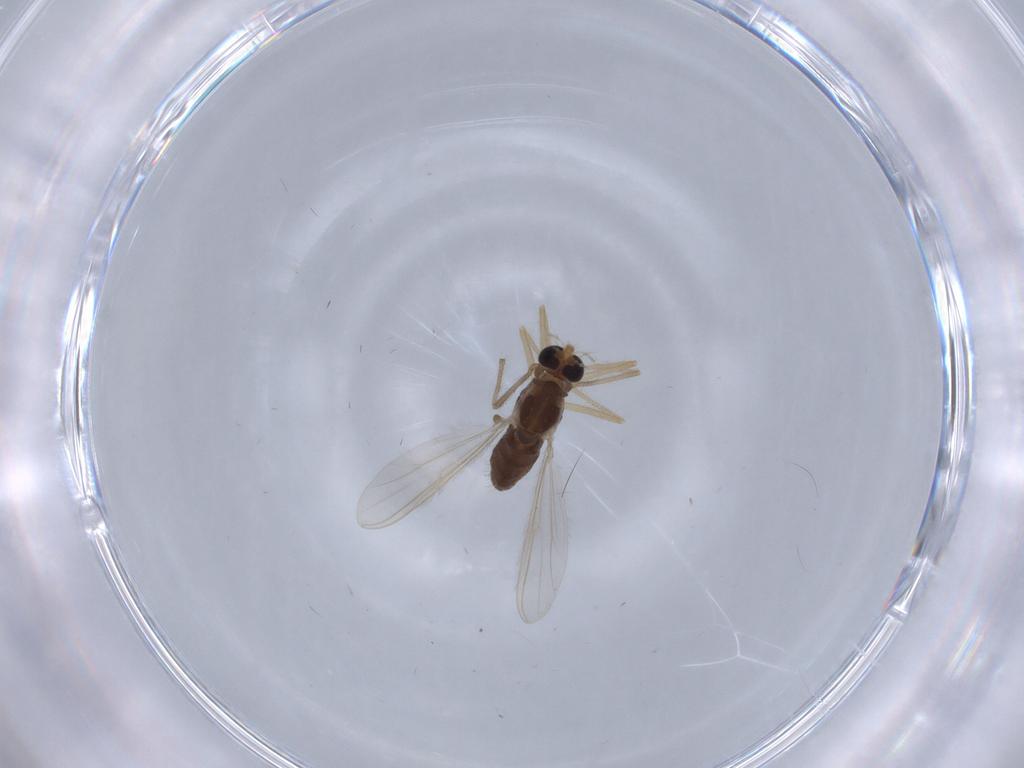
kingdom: Animalia
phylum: Arthropoda
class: Insecta
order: Diptera
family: Chironomidae
